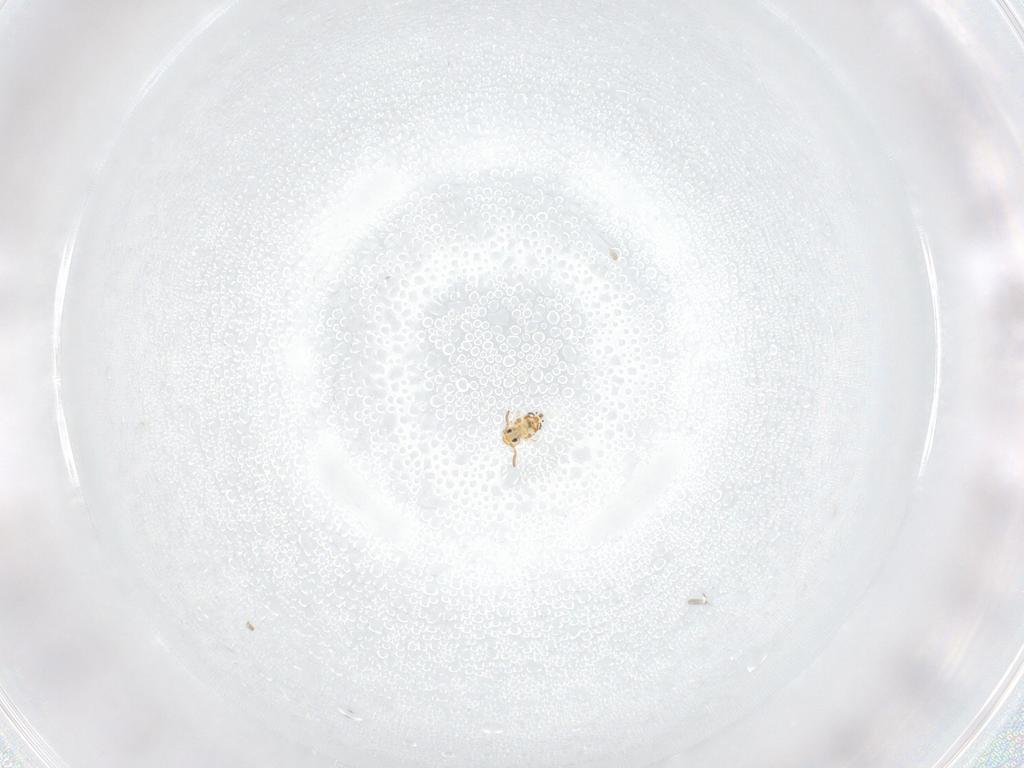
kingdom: Animalia
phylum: Arthropoda
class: Collembola
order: Symphypleona
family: Bourletiellidae
